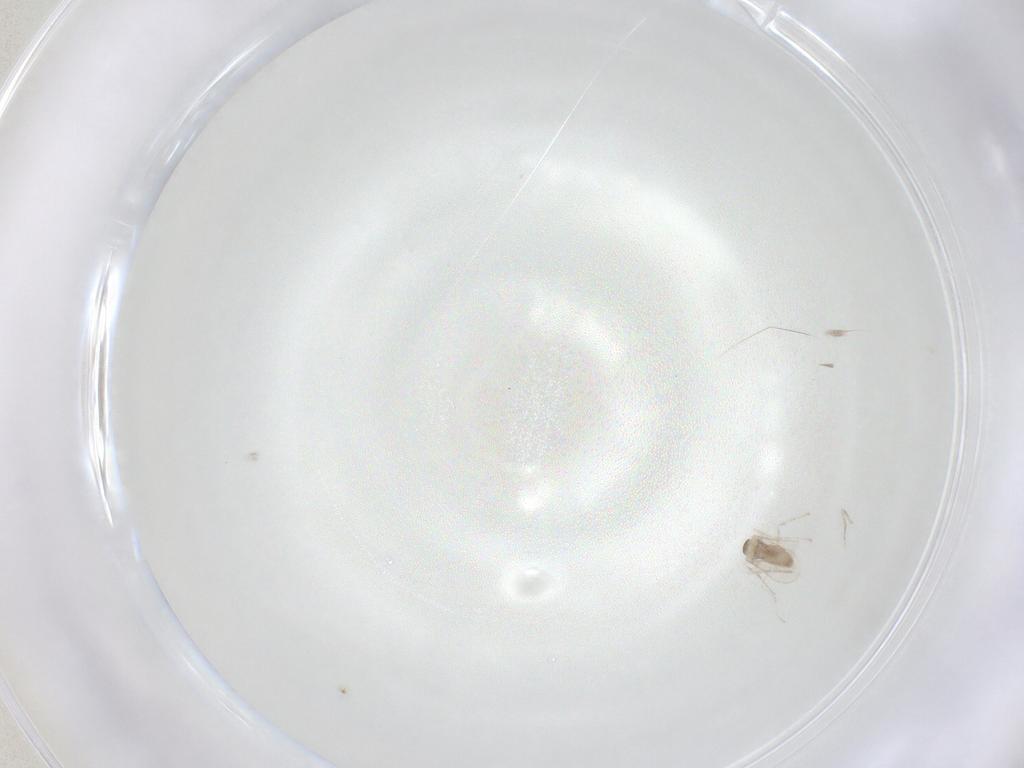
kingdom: Animalia
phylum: Arthropoda
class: Insecta
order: Diptera
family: Cecidomyiidae
